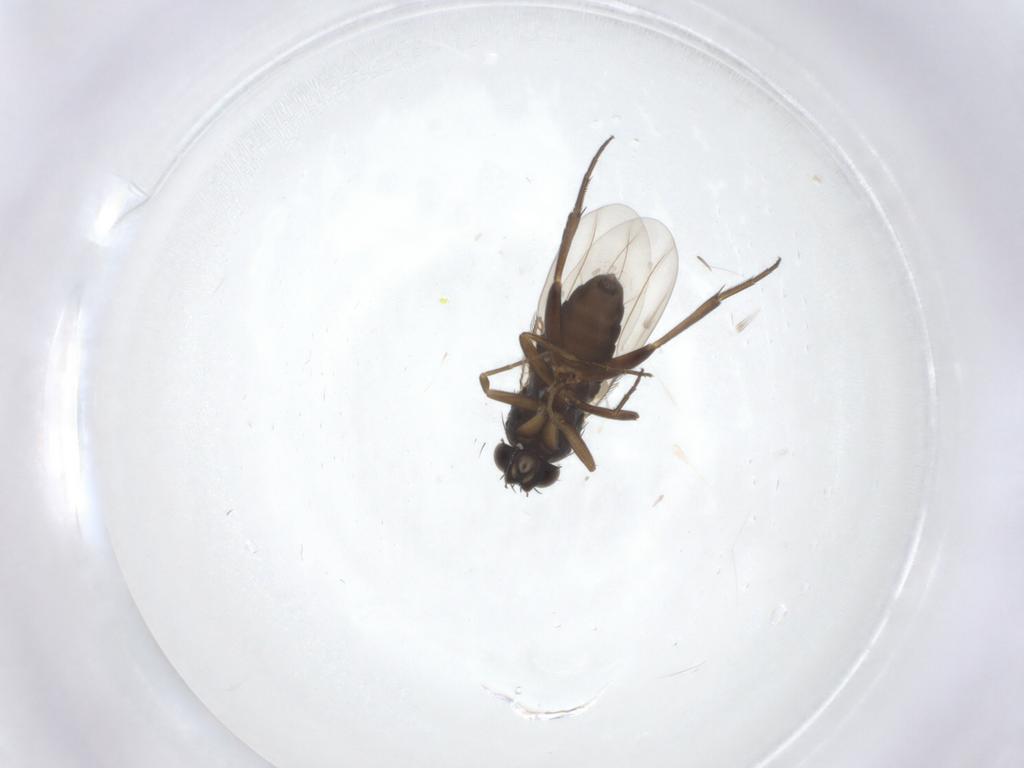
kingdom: Animalia
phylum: Arthropoda
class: Insecta
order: Diptera
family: Phoridae
